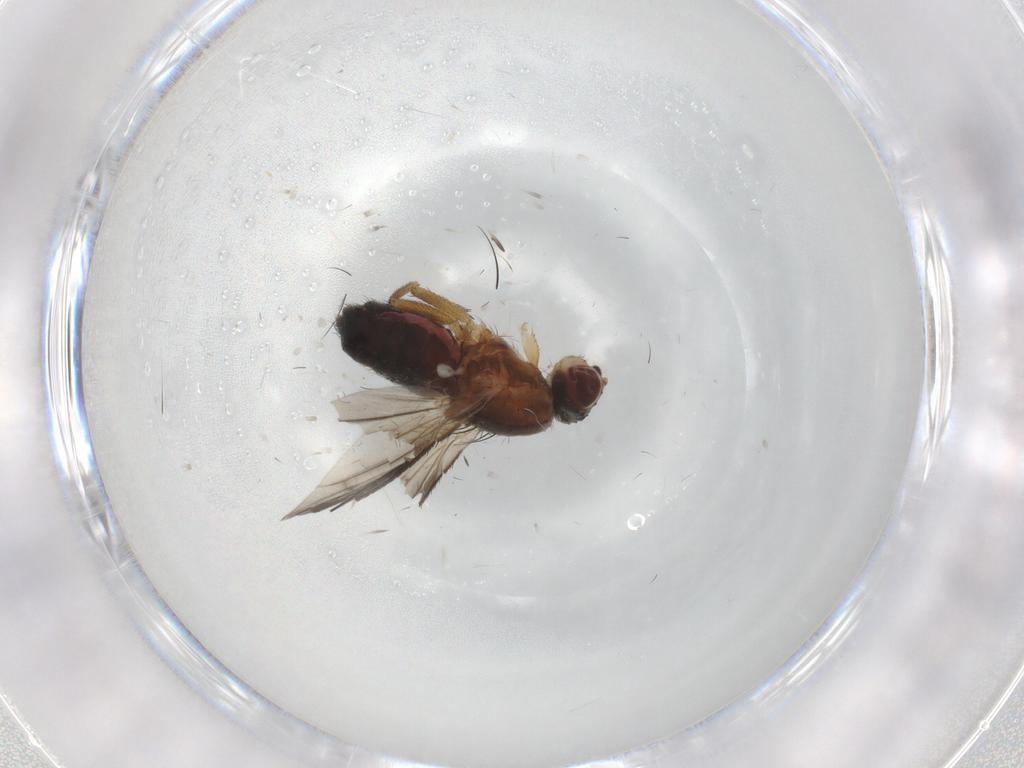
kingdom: Animalia
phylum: Arthropoda
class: Insecta
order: Diptera
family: Heleomyzidae
